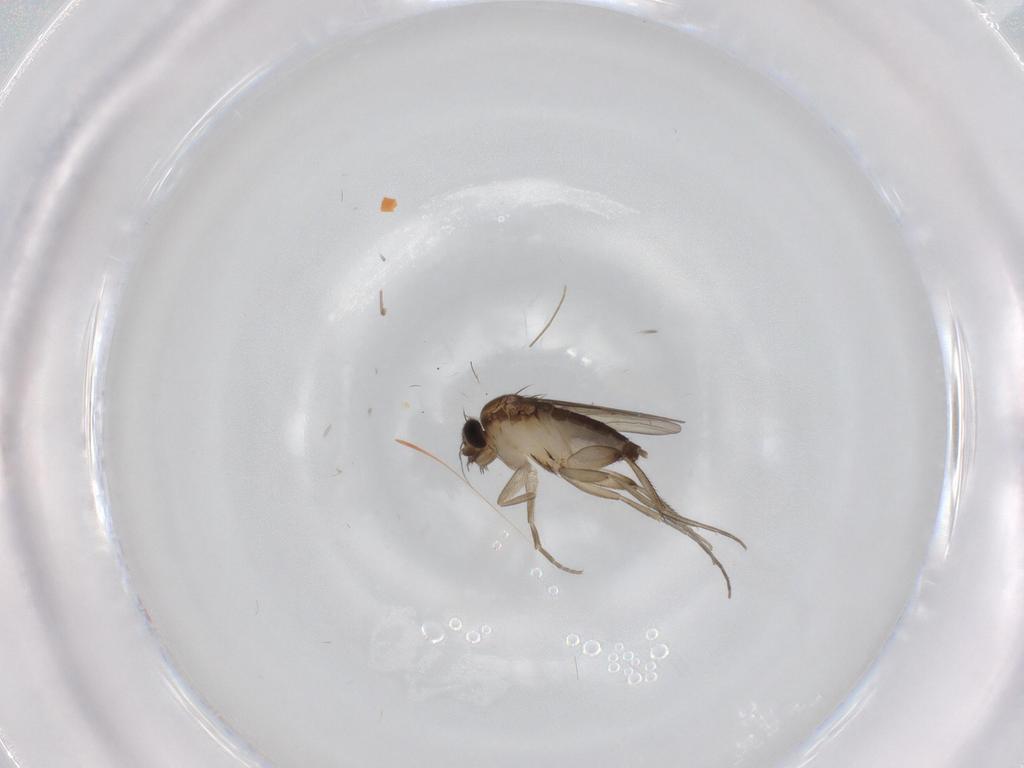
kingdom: Animalia
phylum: Arthropoda
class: Insecta
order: Diptera
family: Phoridae
